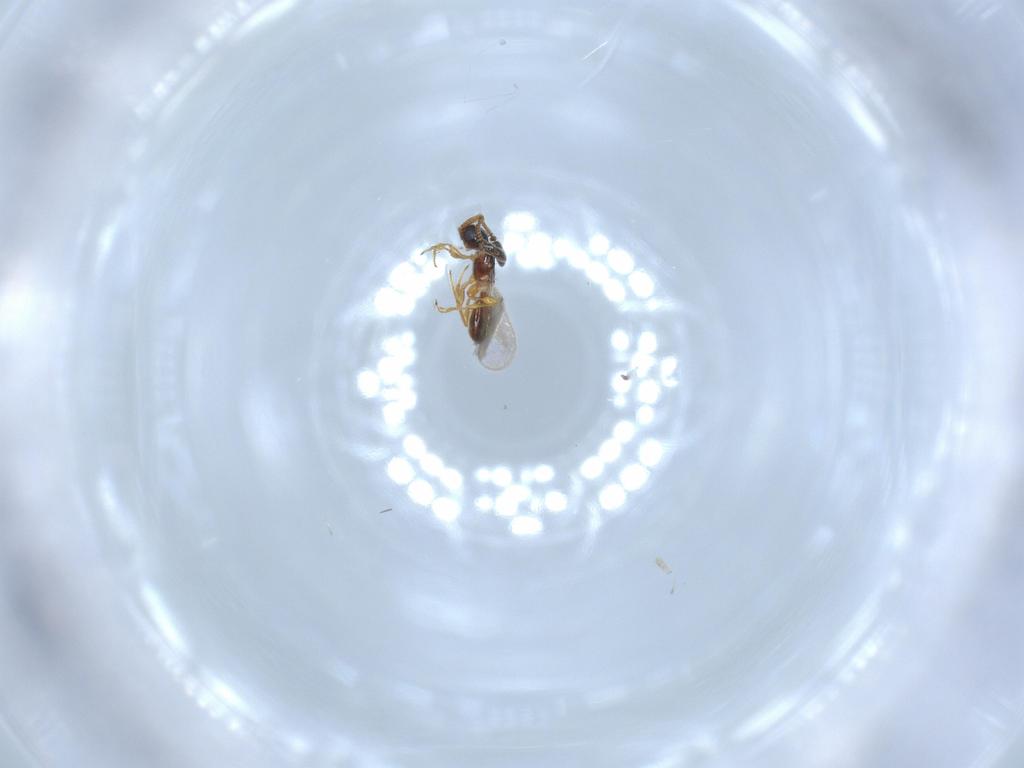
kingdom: Animalia
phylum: Arthropoda
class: Insecta
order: Hymenoptera
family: Diapriidae
